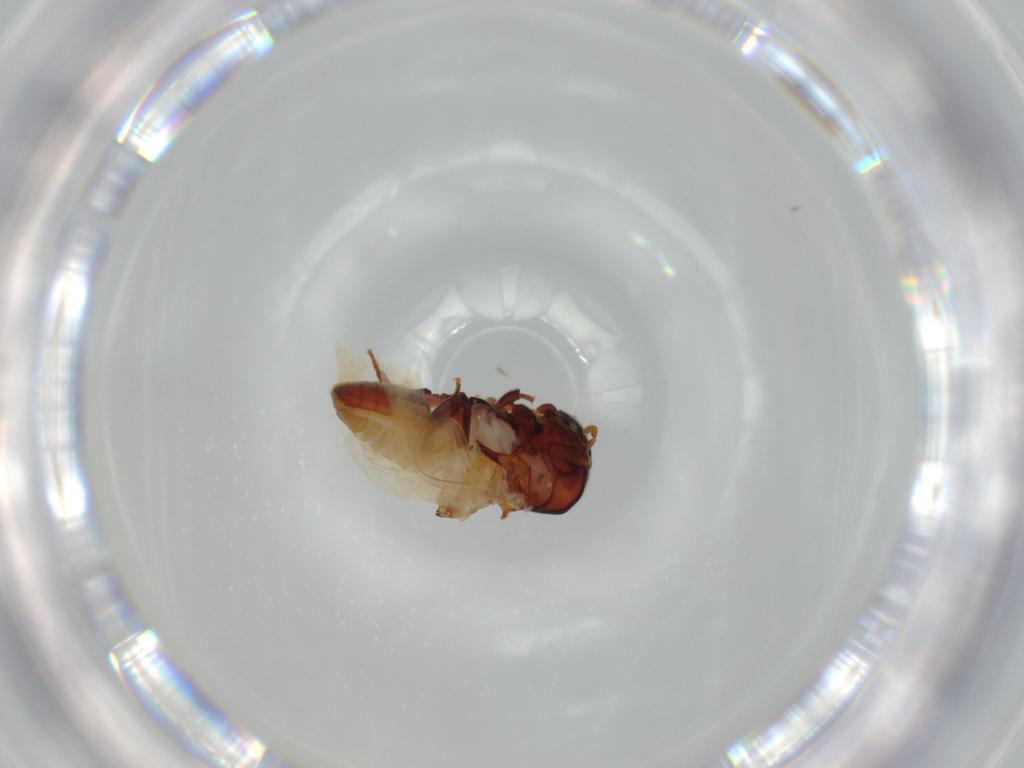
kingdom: Animalia
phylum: Arthropoda
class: Insecta
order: Coleoptera
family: Ptinidae
